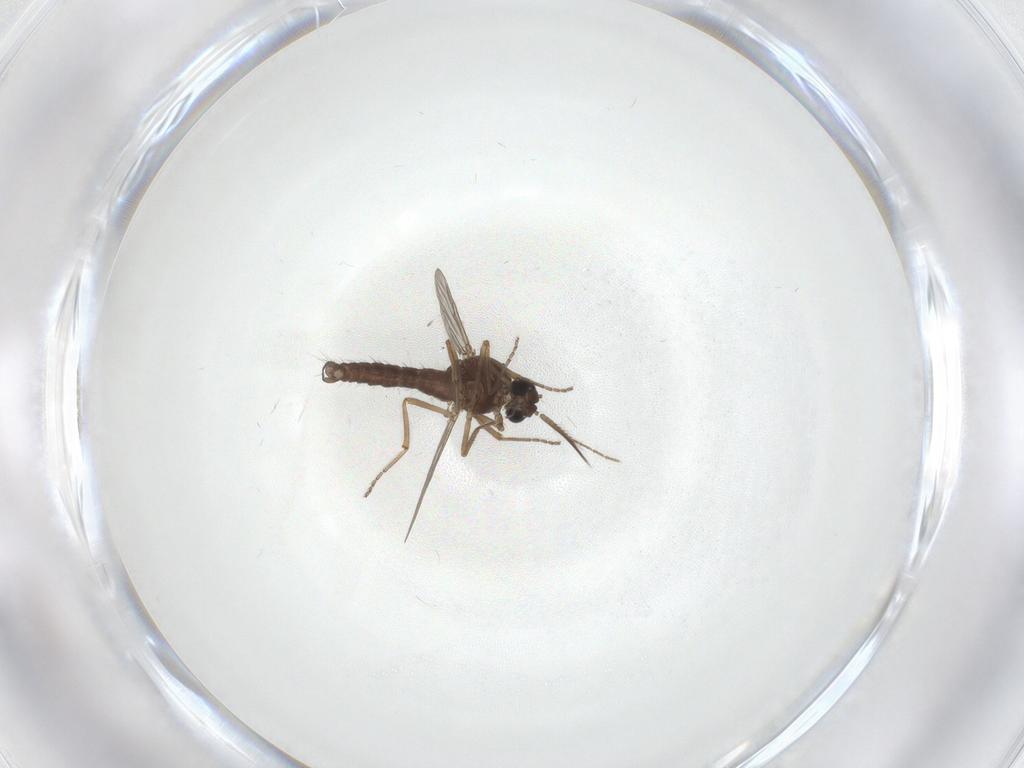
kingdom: Animalia
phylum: Arthropoda
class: Insecta
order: Diptera
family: Ceratopogonidae
